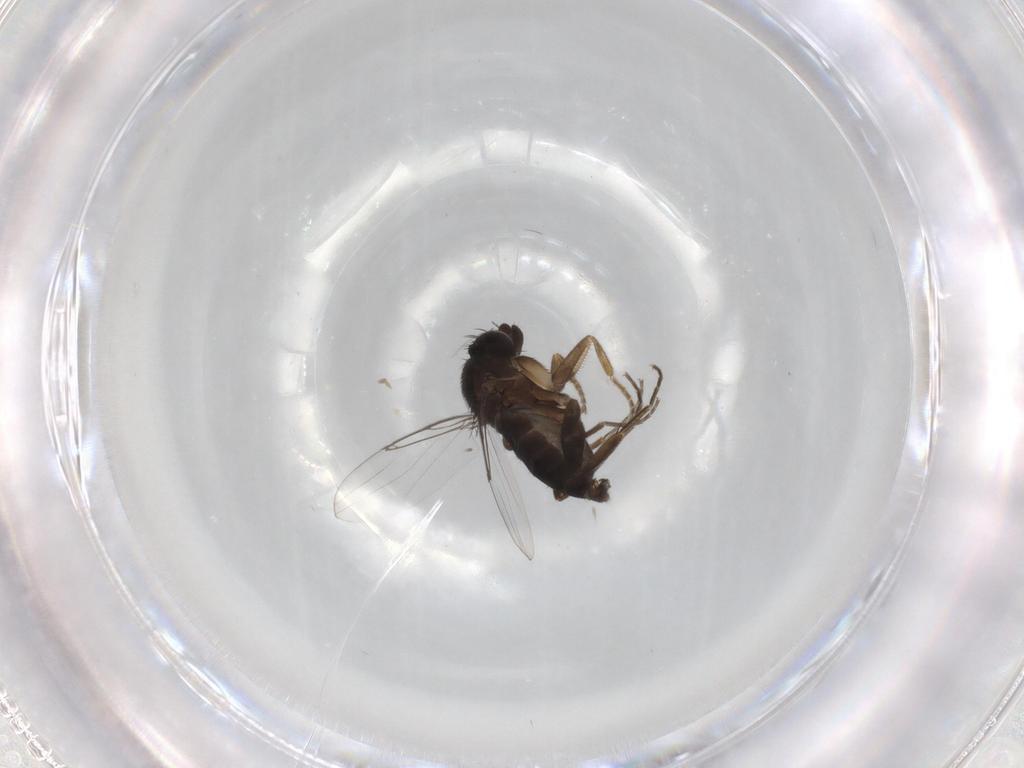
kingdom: Animalia
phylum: Arthropoda
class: Insecta
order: Diptera
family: Phoridae
